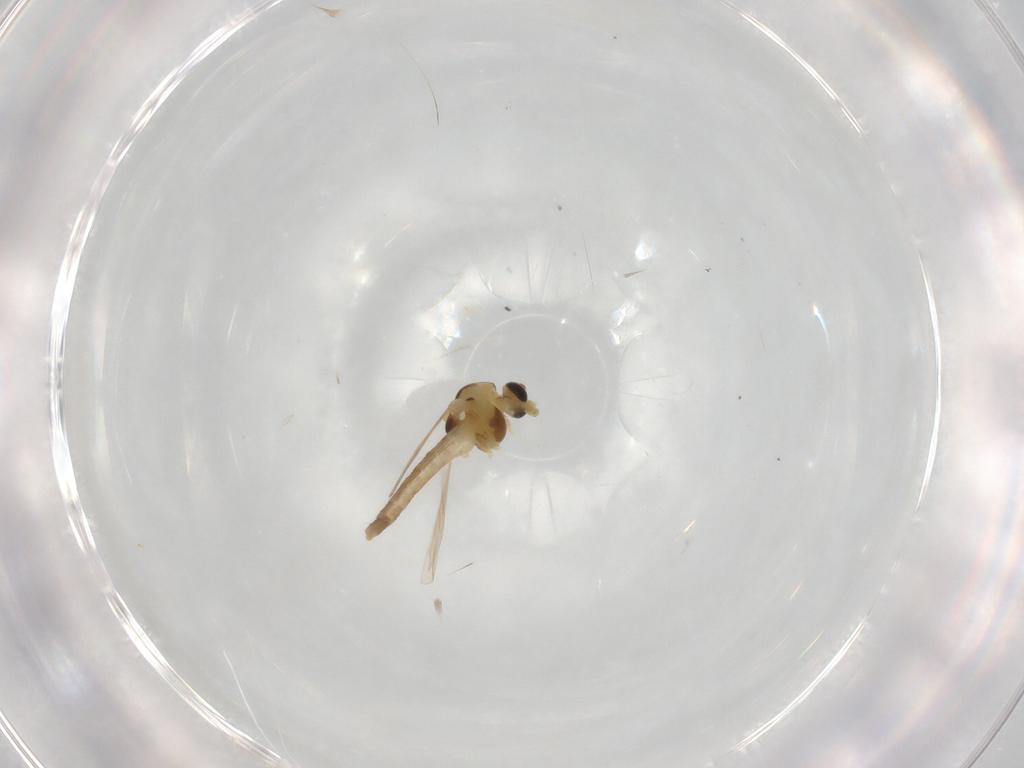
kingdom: Animalia
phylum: Arthropoda
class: Insecta
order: Diptera
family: Chironomidae
